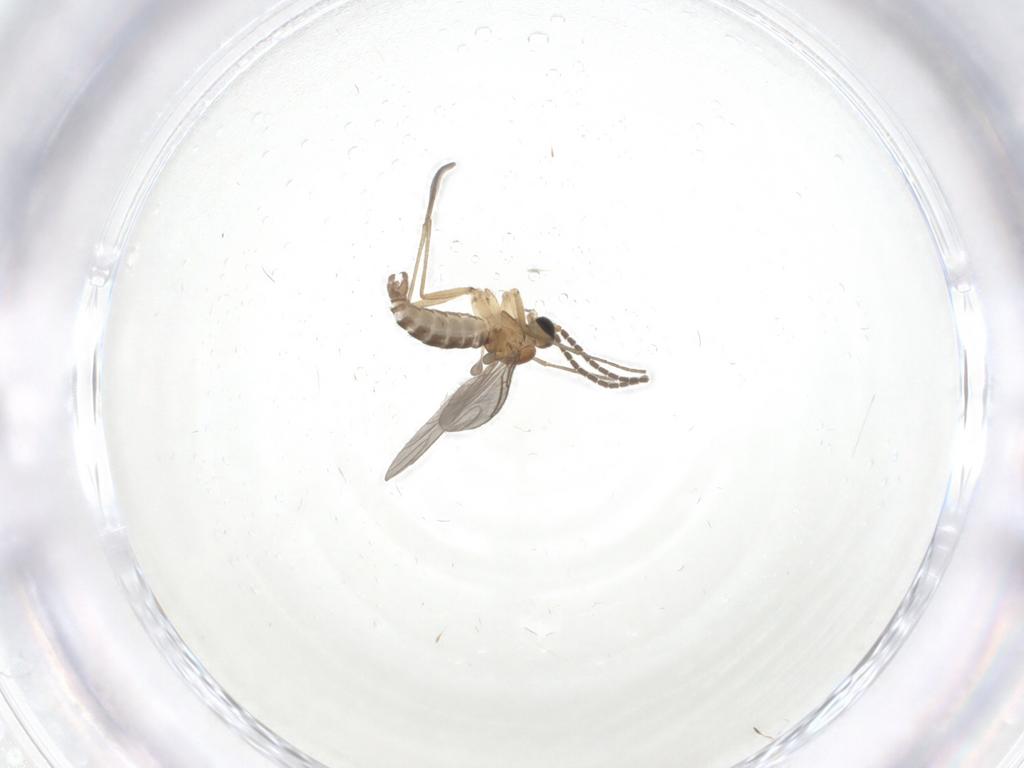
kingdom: Animalia
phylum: Arthropoda
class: Insecta
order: Diptera
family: Sciaridae
